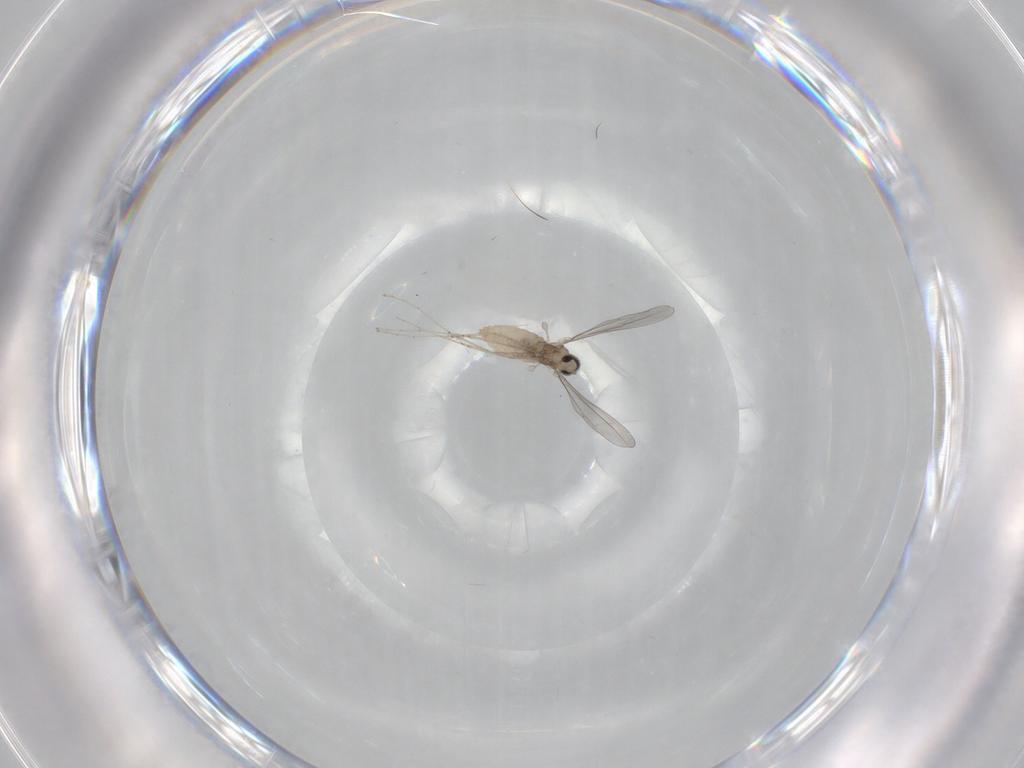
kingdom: Animalia
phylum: Arthropoda
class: Insecta
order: Diptera
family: Cecidomyiidae
